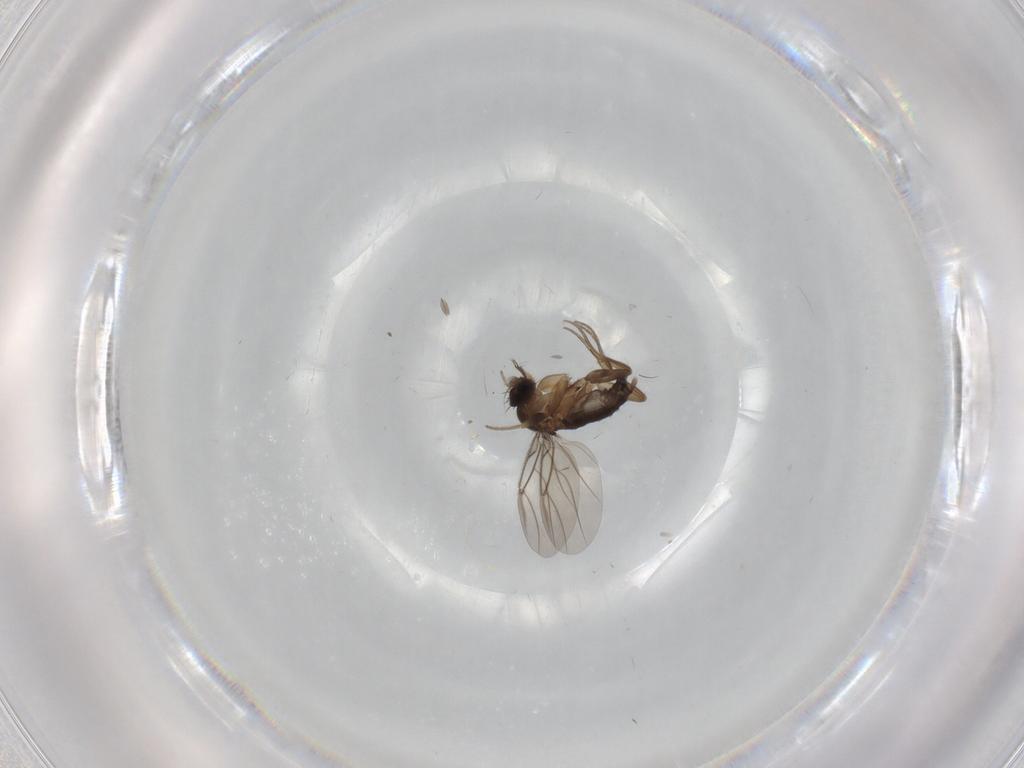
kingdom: Animalia
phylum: Arthropoda
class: Insecta
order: Diptera
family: Phoridae
